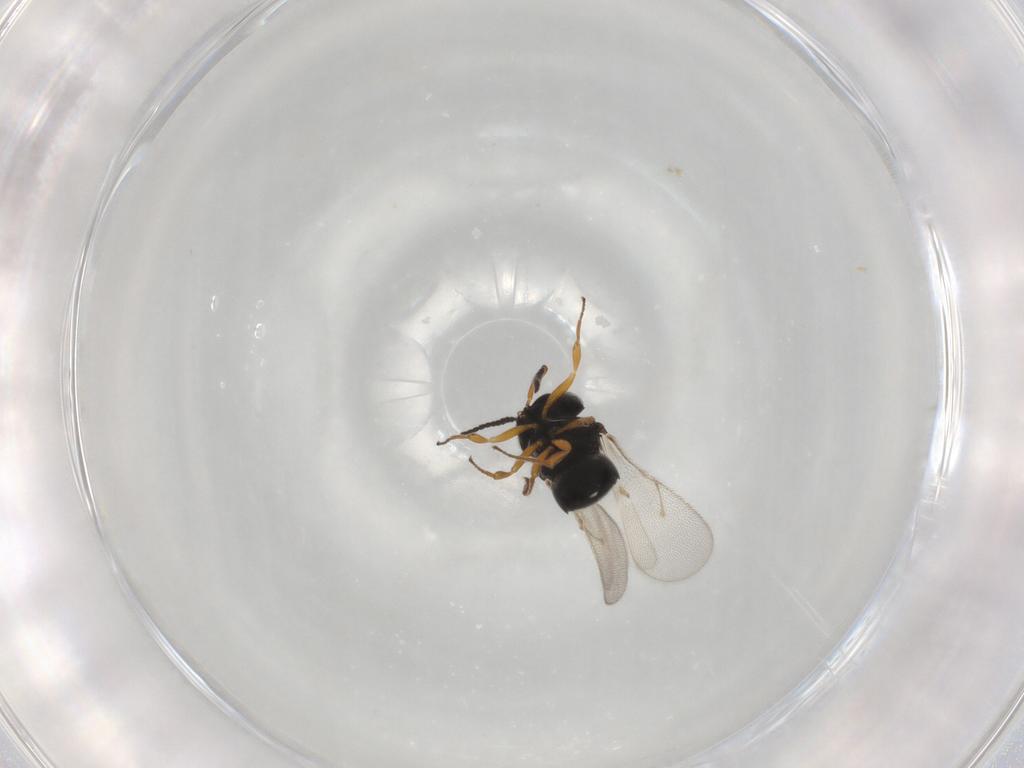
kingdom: Animalia
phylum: Arthropoda
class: Insecta
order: Hymenoptera
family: Scelionidae
